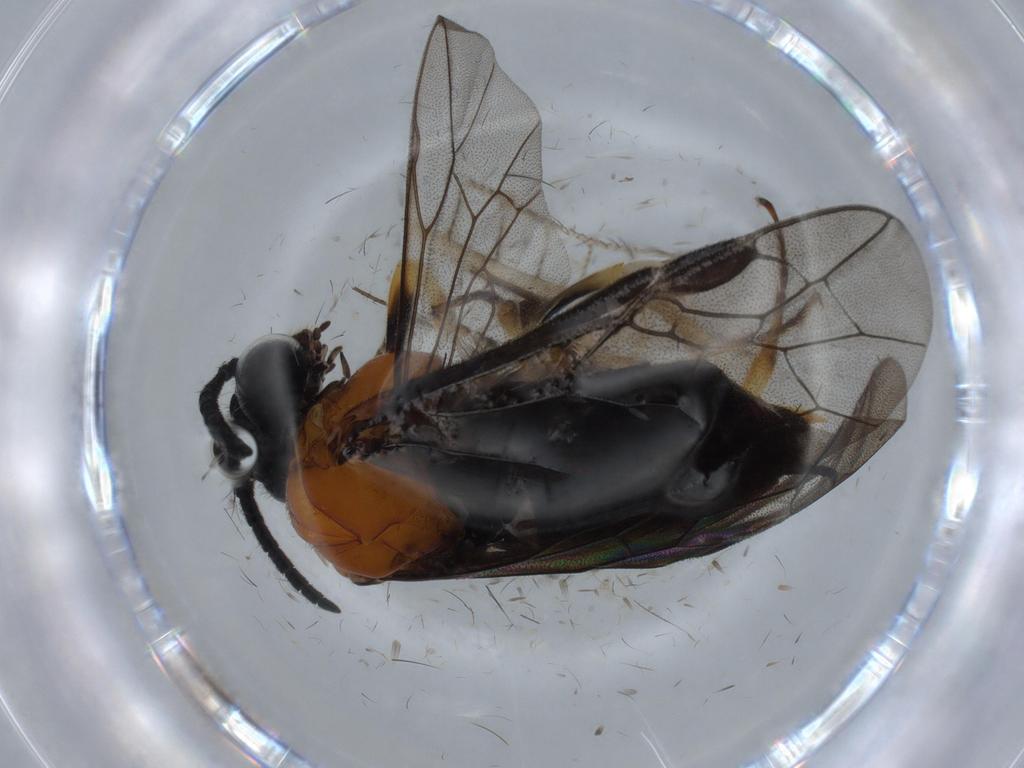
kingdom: Animalia
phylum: Arthropoda
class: Insecta
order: Hymenoptera
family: Tenthredinidae
